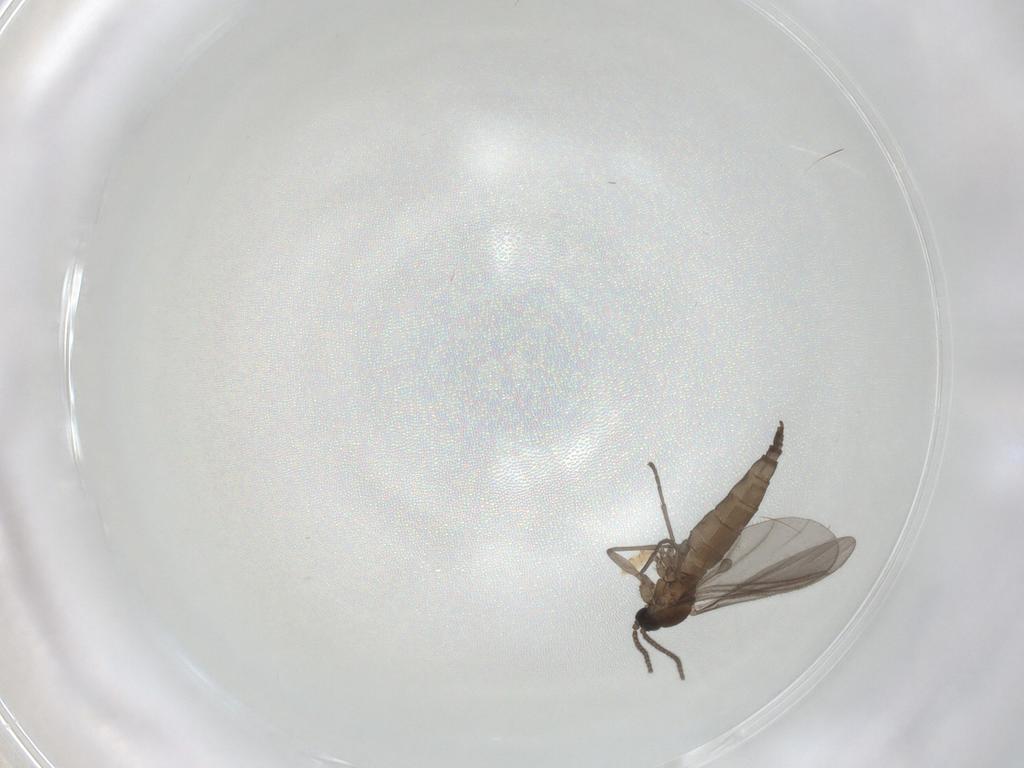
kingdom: Animalia
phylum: Arthropoda
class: Insecta
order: Diptera
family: Sciaridae
